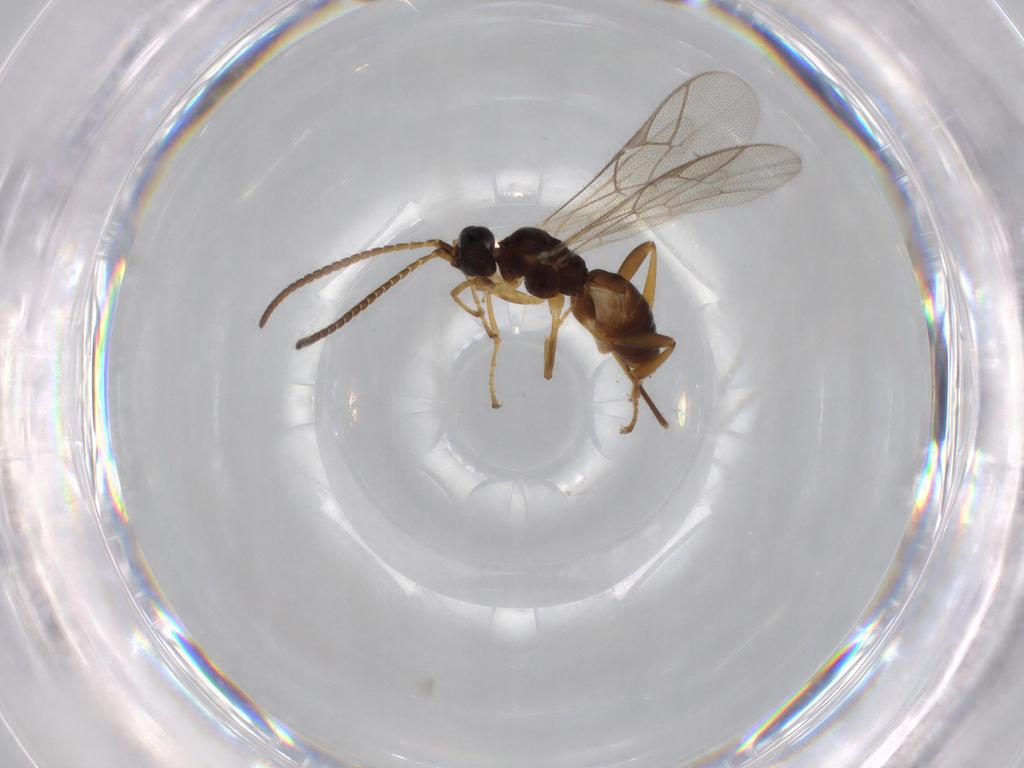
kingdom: Animalia
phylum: Arthropoda
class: Insecta
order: Hymenoptera
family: Ichneumonidae
